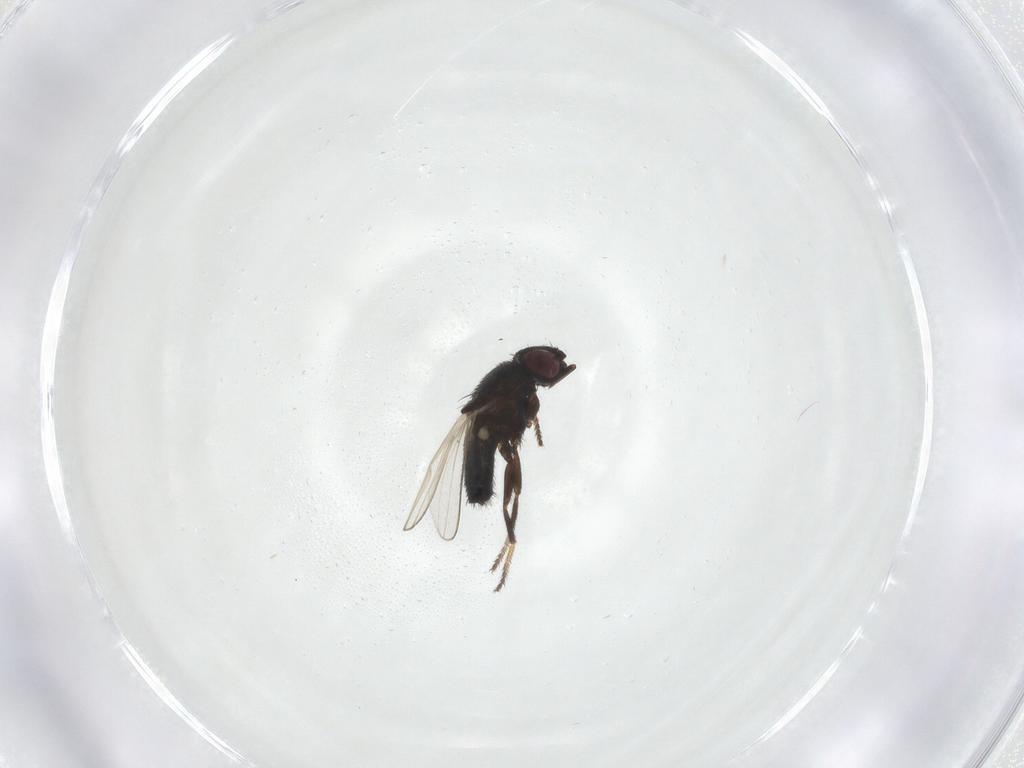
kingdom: Animalia
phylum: Arthropoda
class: Insecta
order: Diptera
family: Milichiidae
